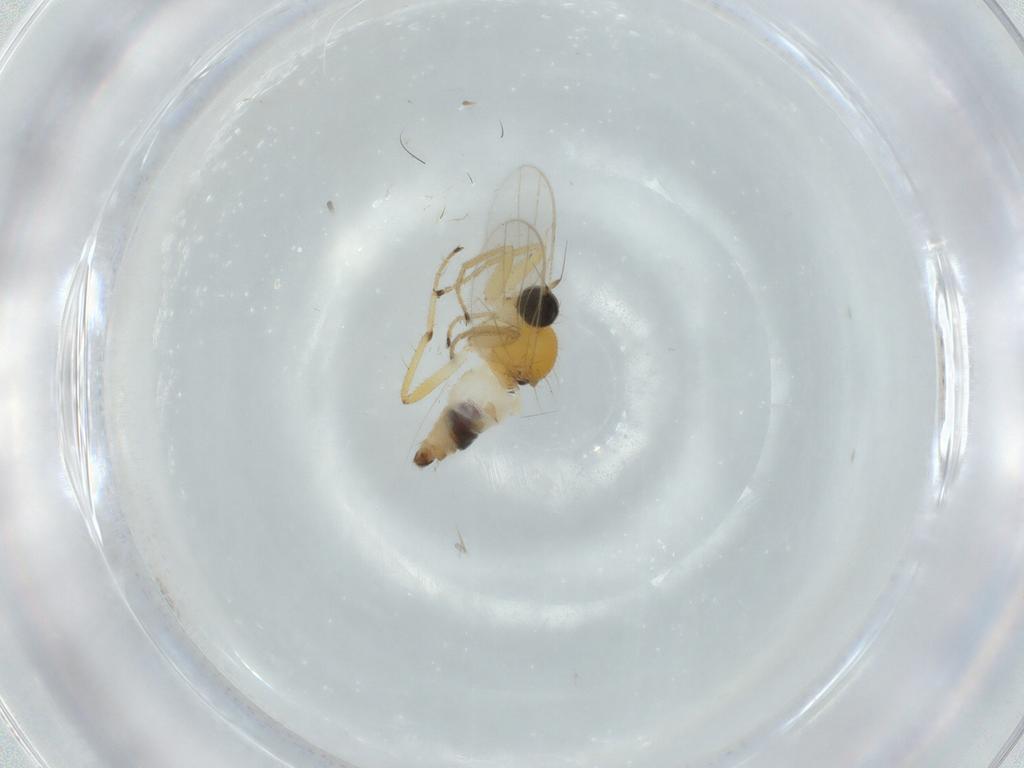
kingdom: Animalia
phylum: Arthropoda
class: Insecta
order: Diptera
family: Hybotidae
